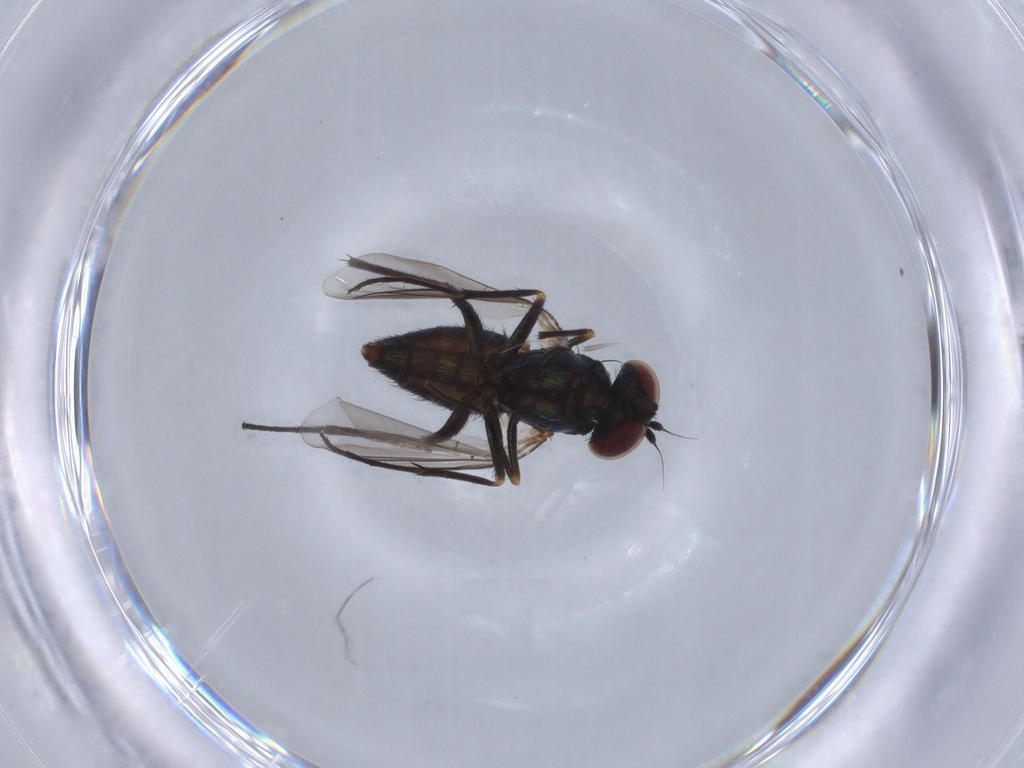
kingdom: Animalia
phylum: Arthropoda
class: Insecta
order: Diptera
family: Dolichopodidae
